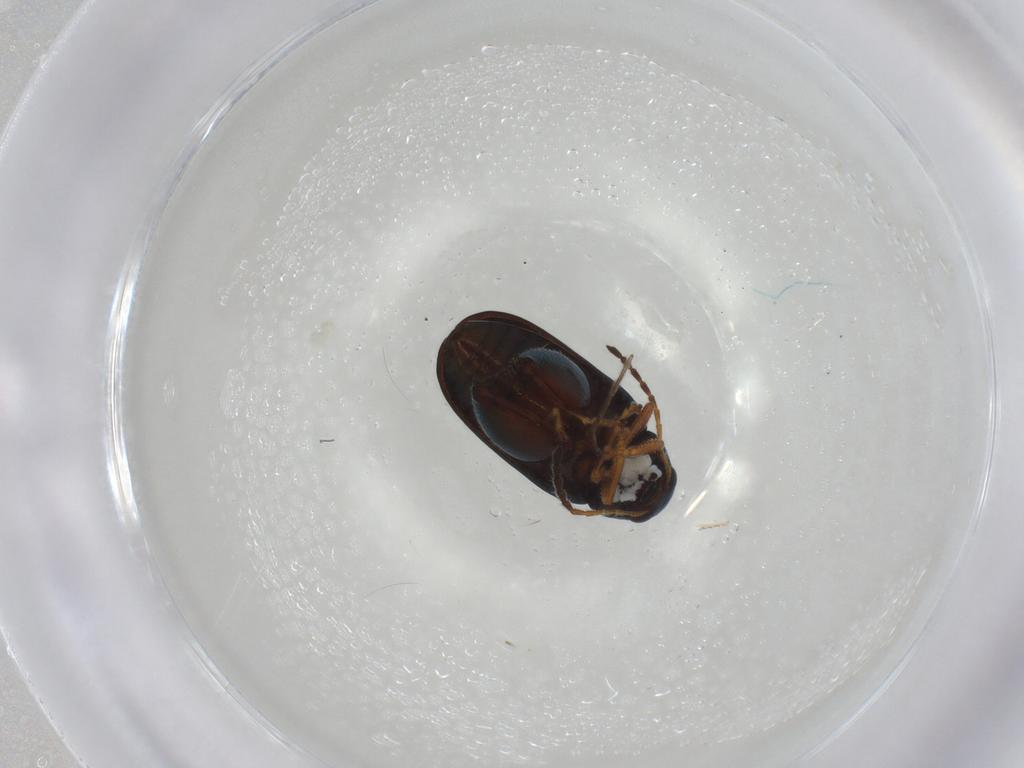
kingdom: Animalia
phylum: Arthropoda
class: Insecta
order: Coleoptera
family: Chrysomelidae
